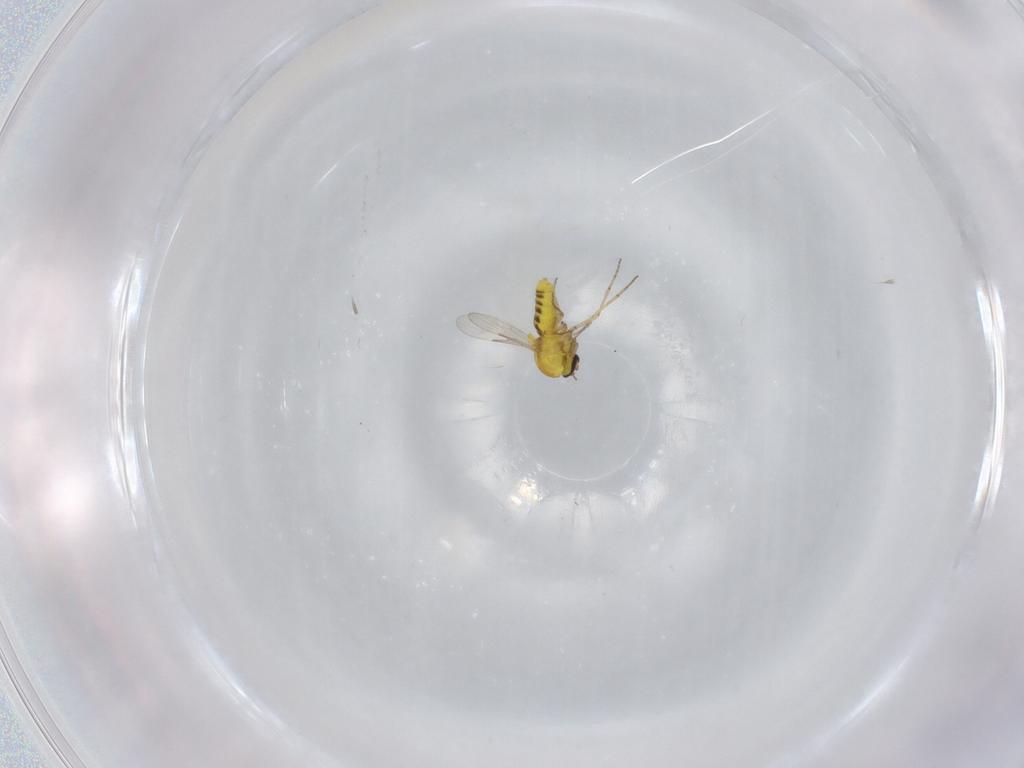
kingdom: Animalia
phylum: Arthropoda
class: Insecta
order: Diptera
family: Ceratopogonidae
